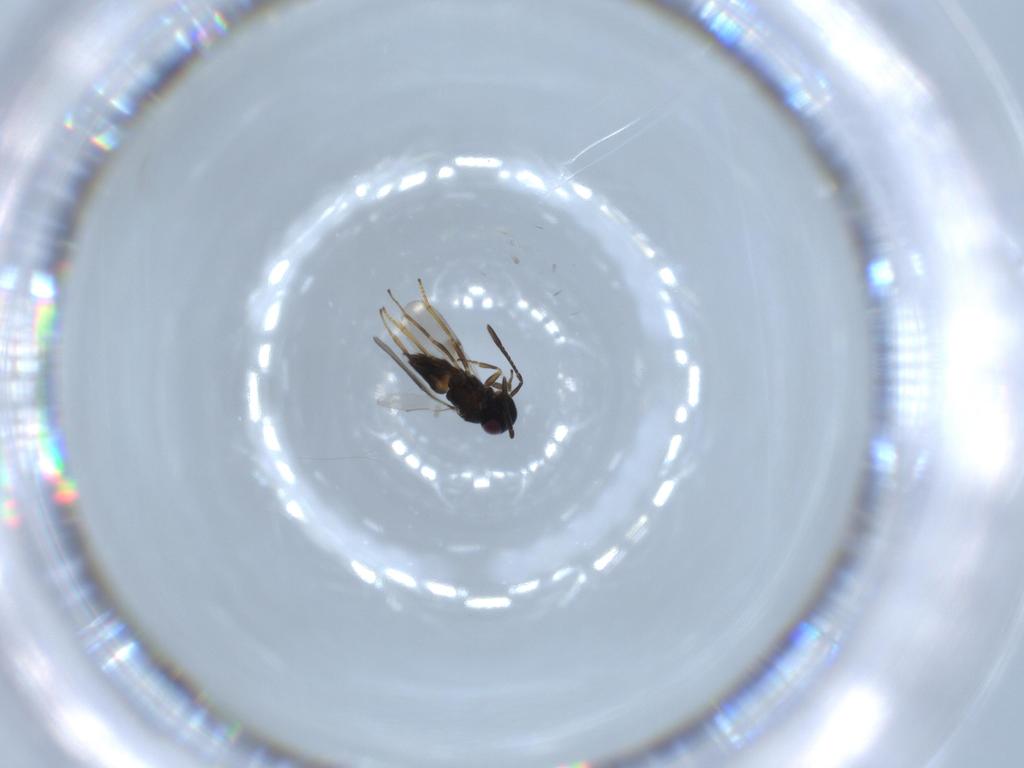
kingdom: Animalia
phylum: Arthropoda
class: Insecta
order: Hymenoptera
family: Encyrtidae
